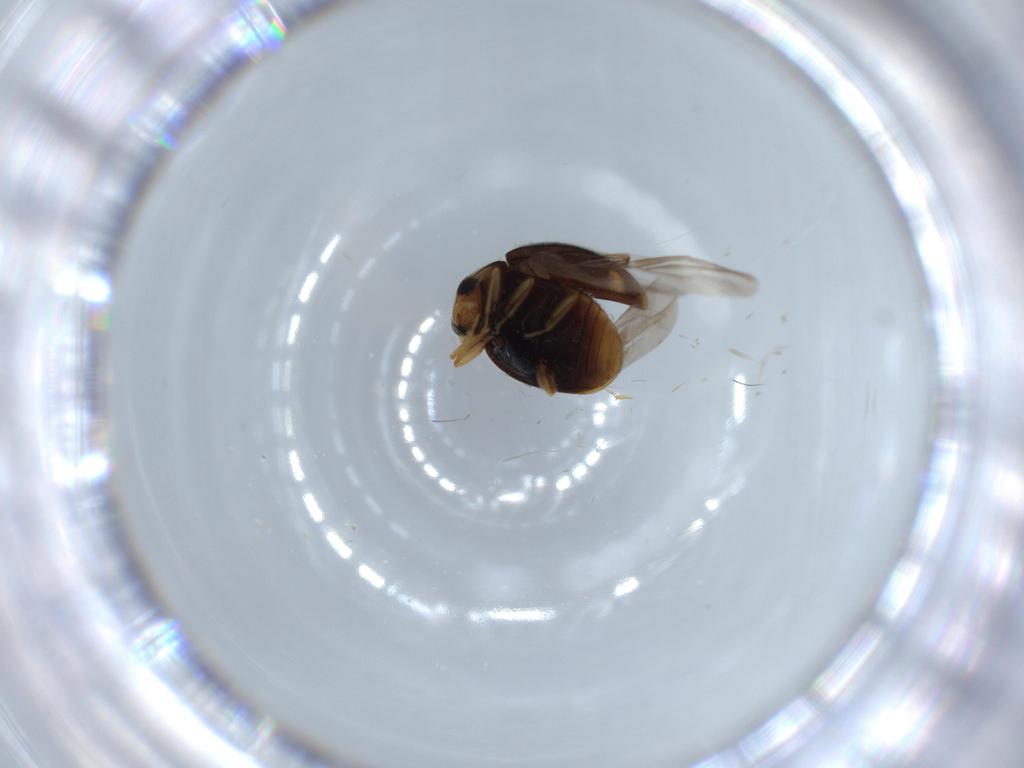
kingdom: Animalia
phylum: Arthropoda
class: Insecta
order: Coleoptera
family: Chrysomelidae
